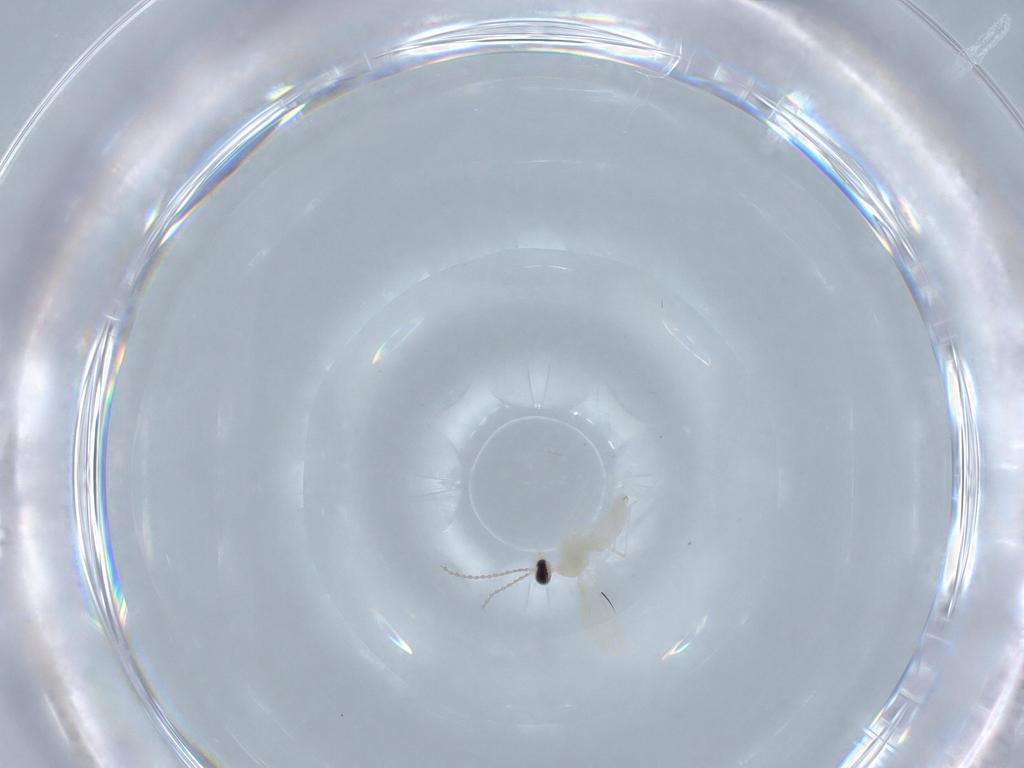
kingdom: Animalia
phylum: Arthropoda
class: Insecta
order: Diptera
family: Cecidomyiidae
